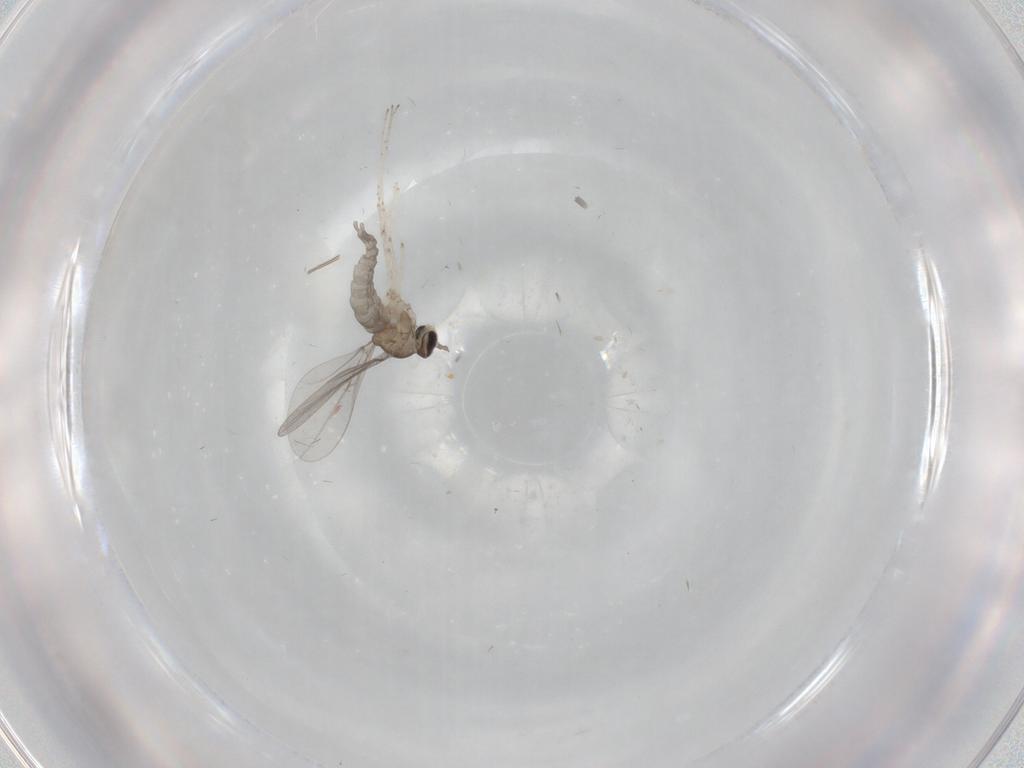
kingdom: Animalia
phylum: Arthropoda
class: Insecta
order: Diptera
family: Cecidomyiidae
